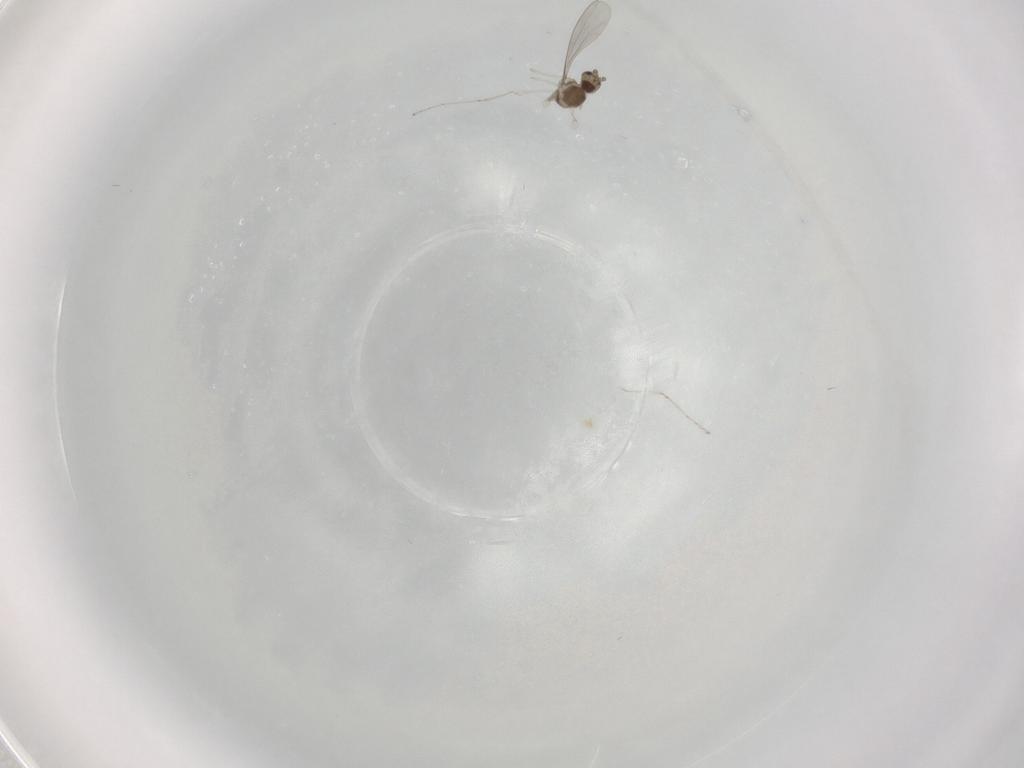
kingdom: Animalia
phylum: Arthropoda
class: Insecta
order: Diptera
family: Cecidomyiidae
